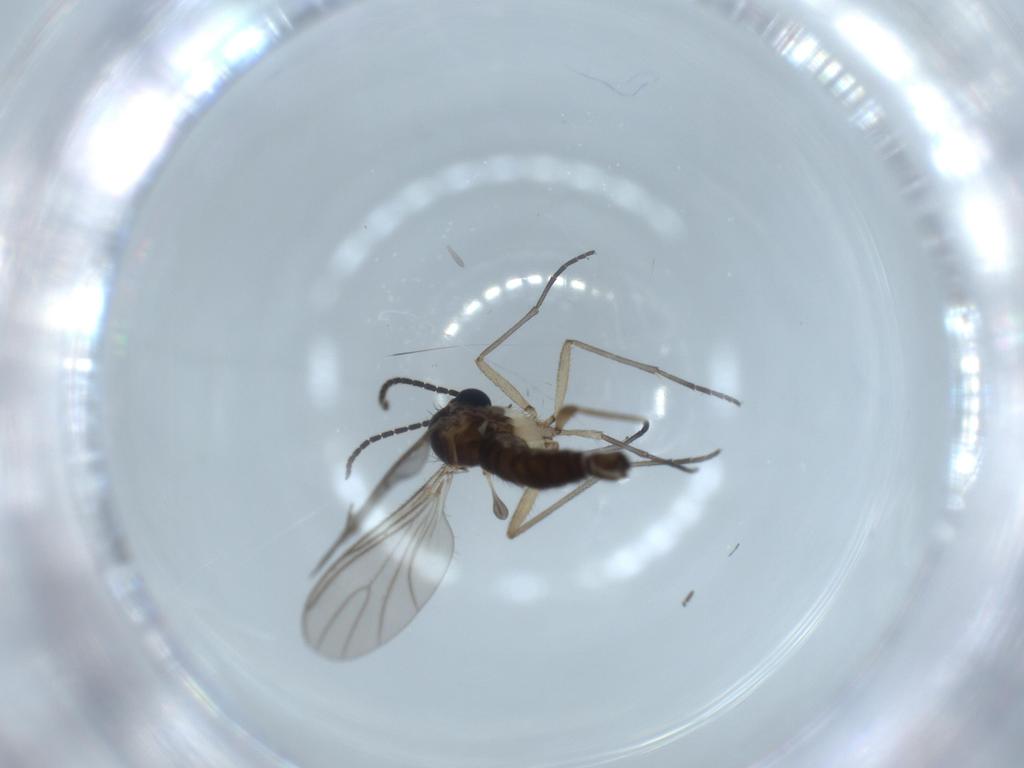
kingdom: Animalia
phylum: Arthropoda
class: Insecta
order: Diptera
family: Sciaridae
